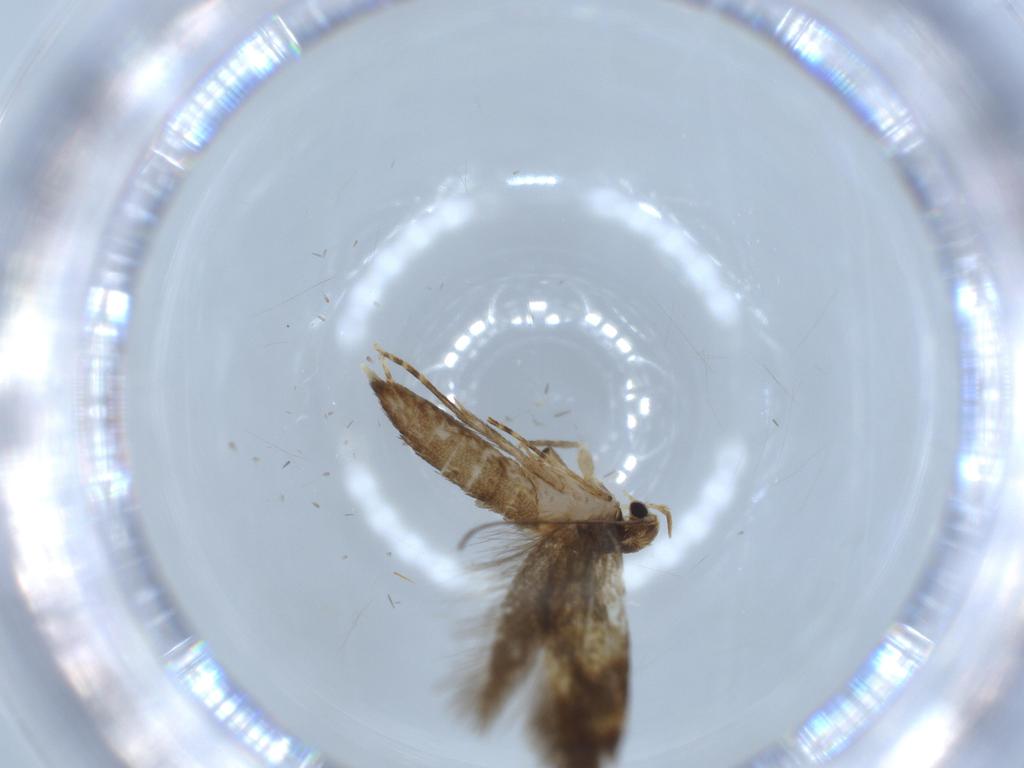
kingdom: Animalia
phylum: Arthropoda
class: Insecta
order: Lepidoptera
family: Tineidae
